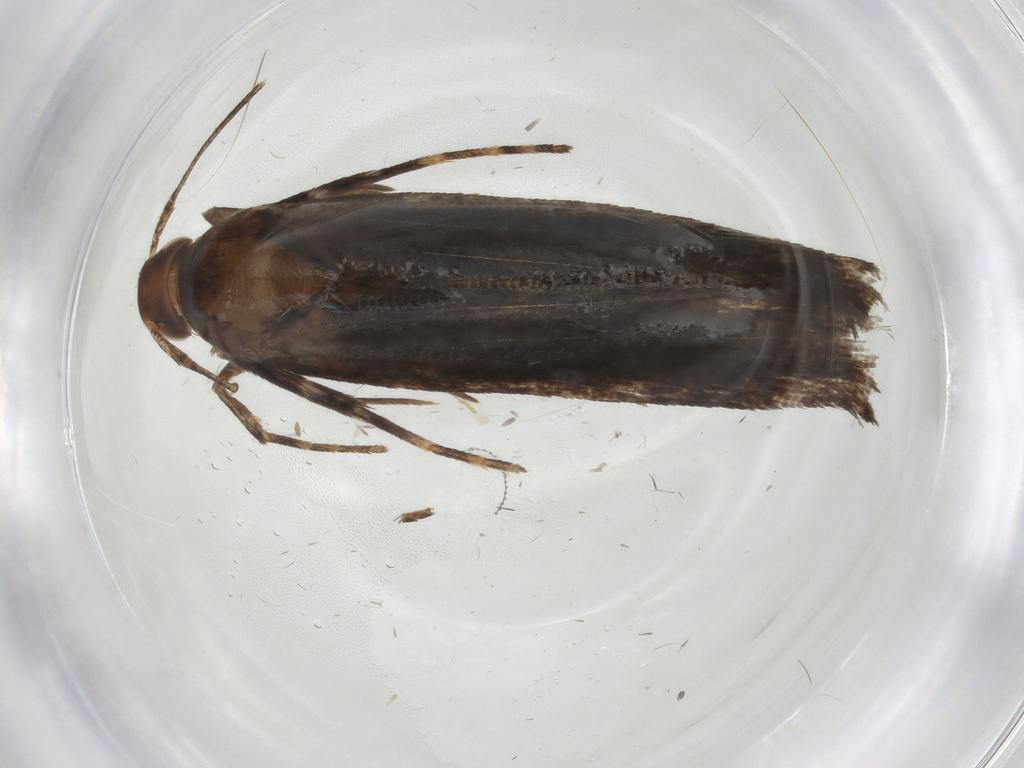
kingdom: Animalia
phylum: Arthropoda
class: Insecta
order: Lepidoptera
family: Gelechiidae
